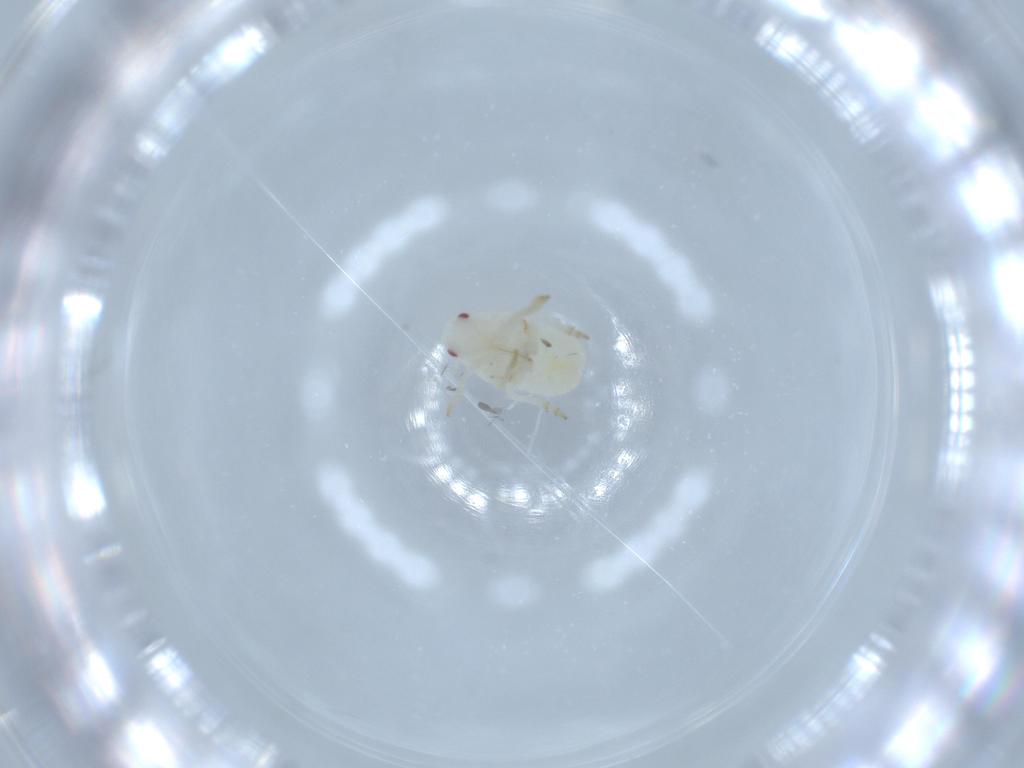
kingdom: Animalia
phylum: Arthropoda
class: Insecta
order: Hemiptera
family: Flatidae
